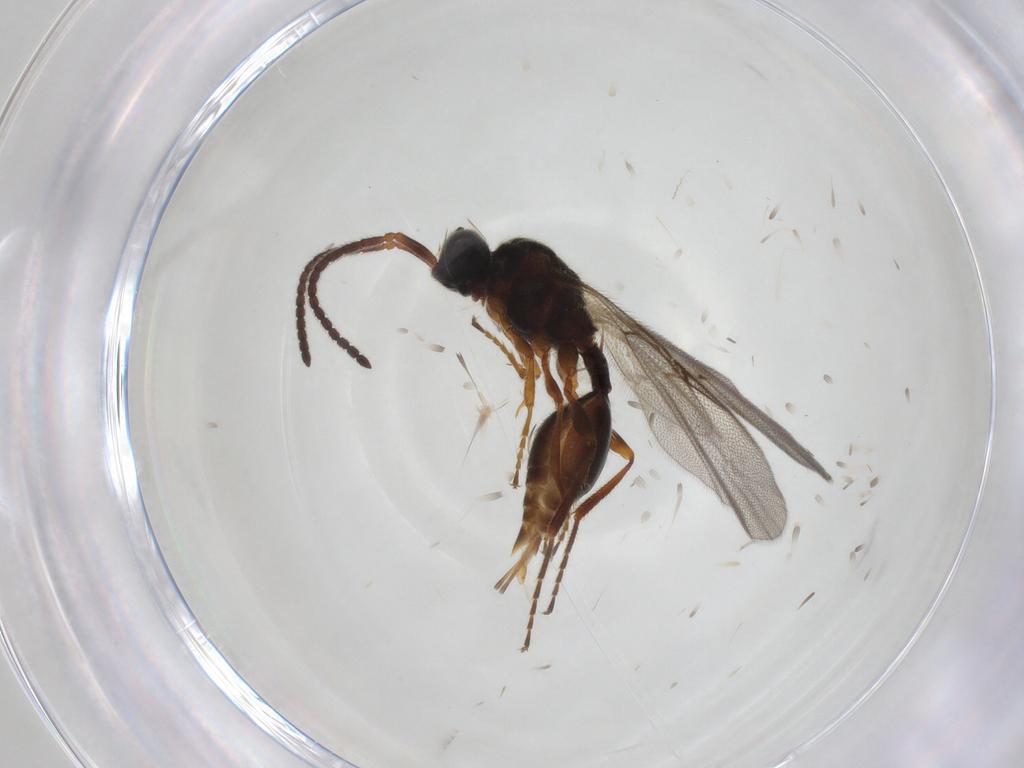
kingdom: Animalia
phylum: Arthropoda
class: Insecta
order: Hymenoptera
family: Diapriidae
